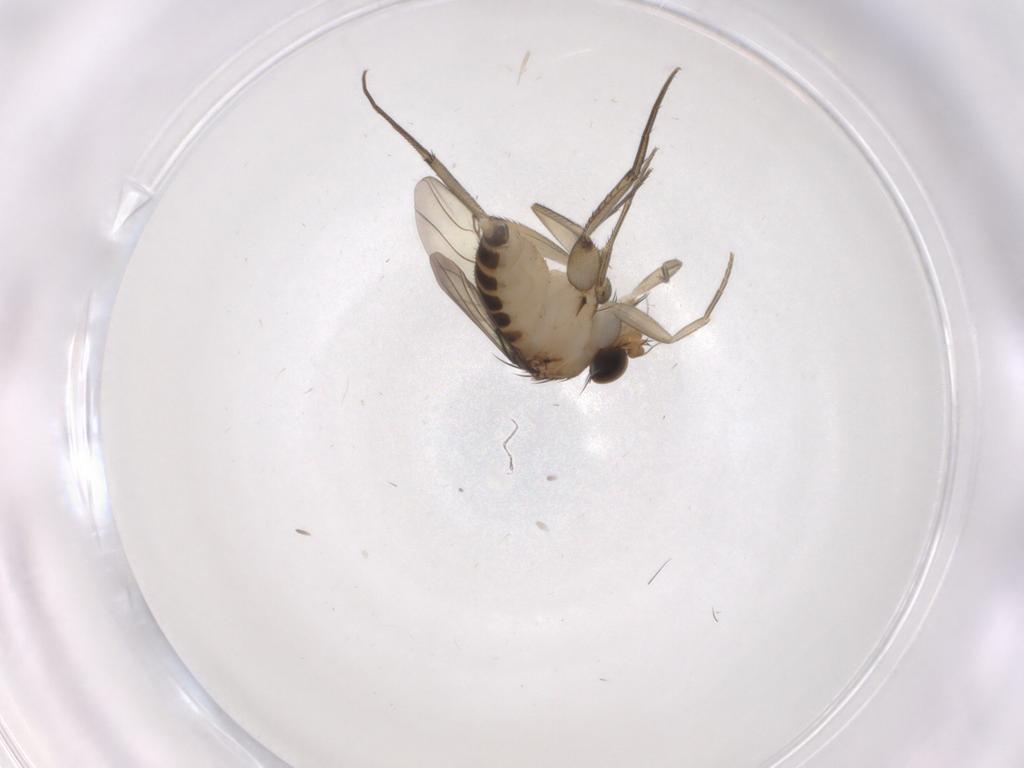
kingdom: Animalia
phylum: Arthropoda
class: Insecta
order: Diptera
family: Phoridae
